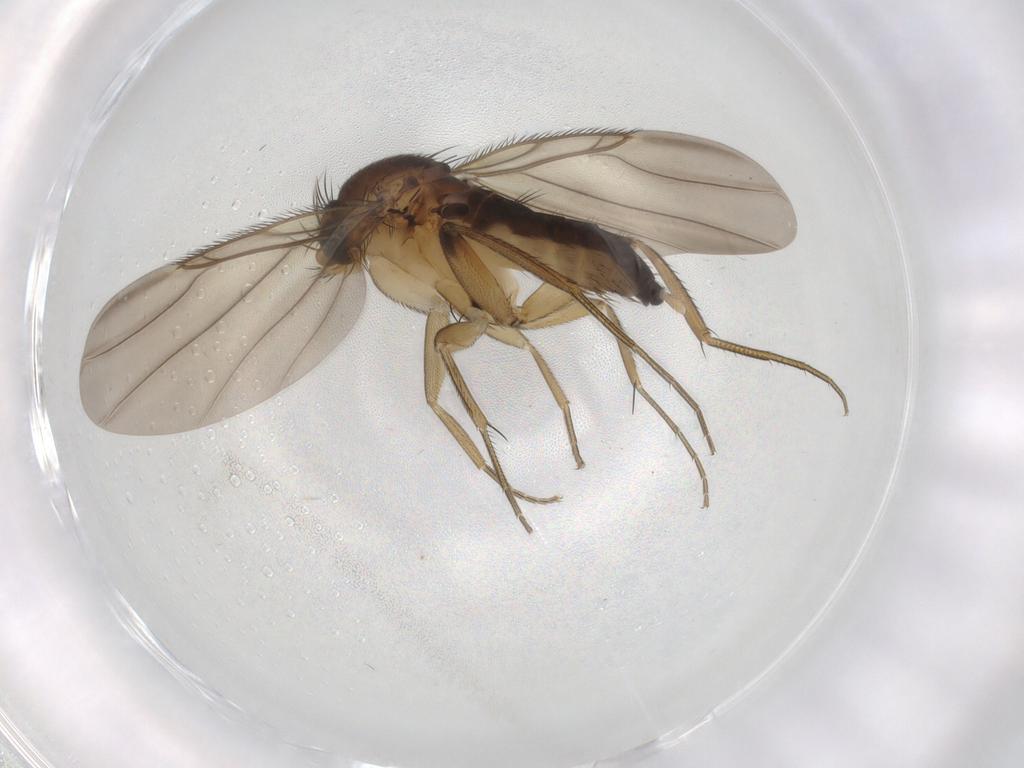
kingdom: Animalia
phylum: Arthropoda
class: Insecta
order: Diptera
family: Phoridae
